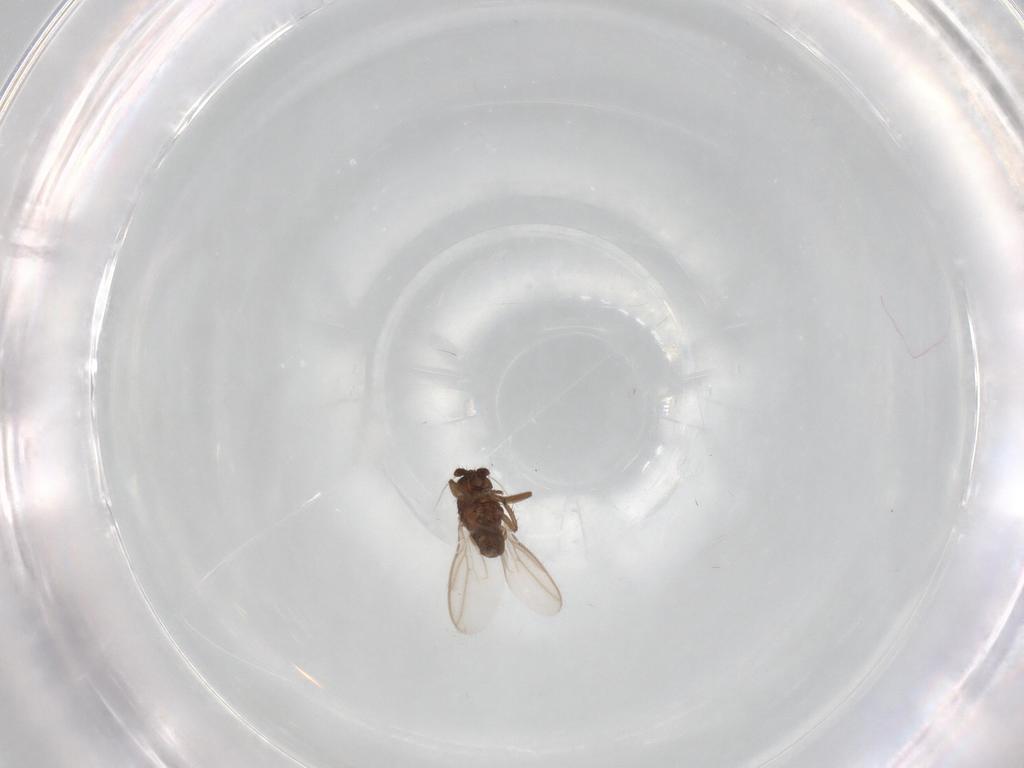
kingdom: Animalia
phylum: Arthropoda
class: Insecta
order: Diptera
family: Sphaeroceridae
